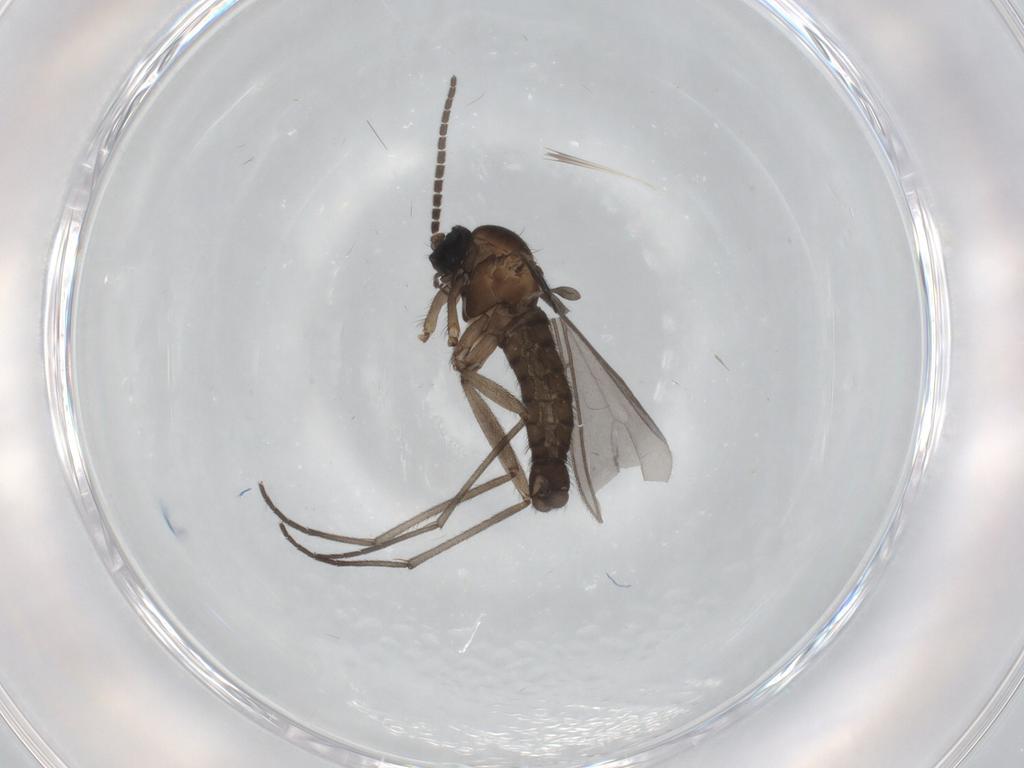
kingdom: Animalia
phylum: Arthropoda
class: Insecta
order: Diptera
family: Sciaridae
